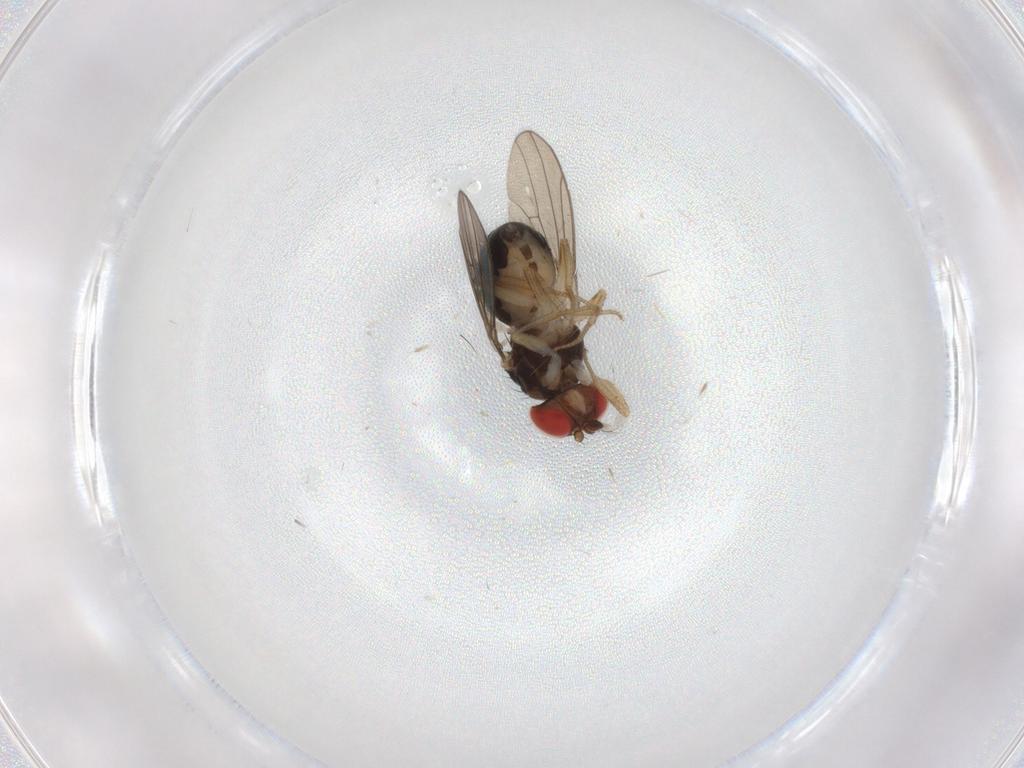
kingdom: Animalia
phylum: Arthropoda
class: Insecta
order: Diptera
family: Drosophilidae
